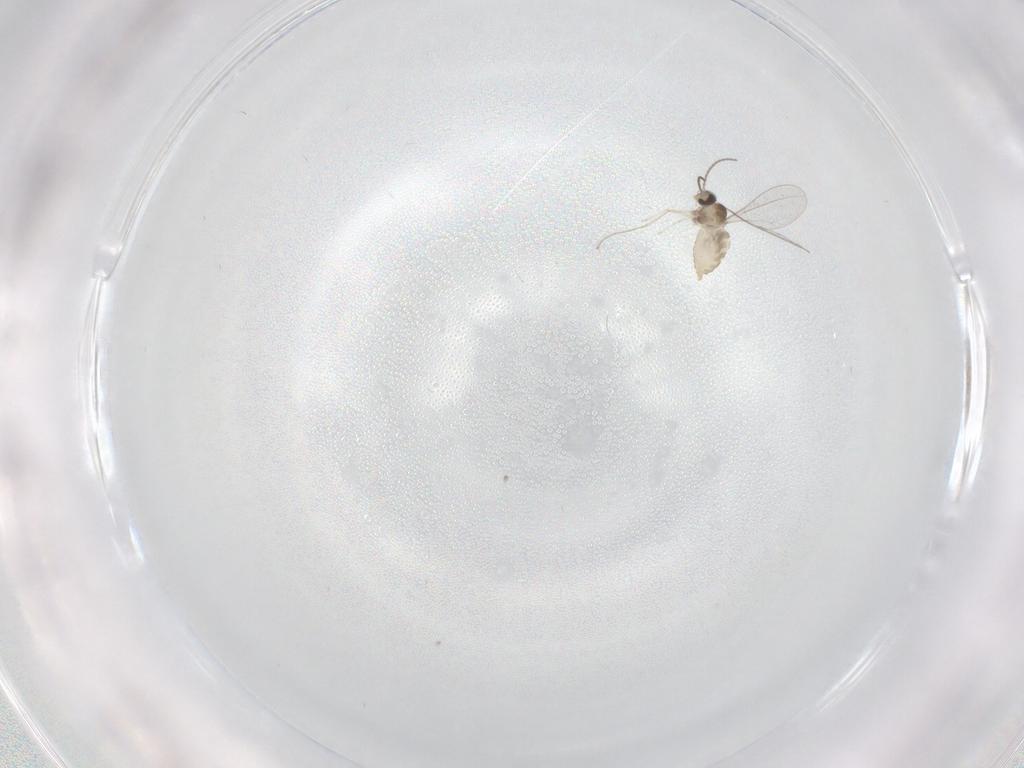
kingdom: Animalia
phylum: Arthropoda
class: Insecta
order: Diptera
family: Cecidomyiidae
